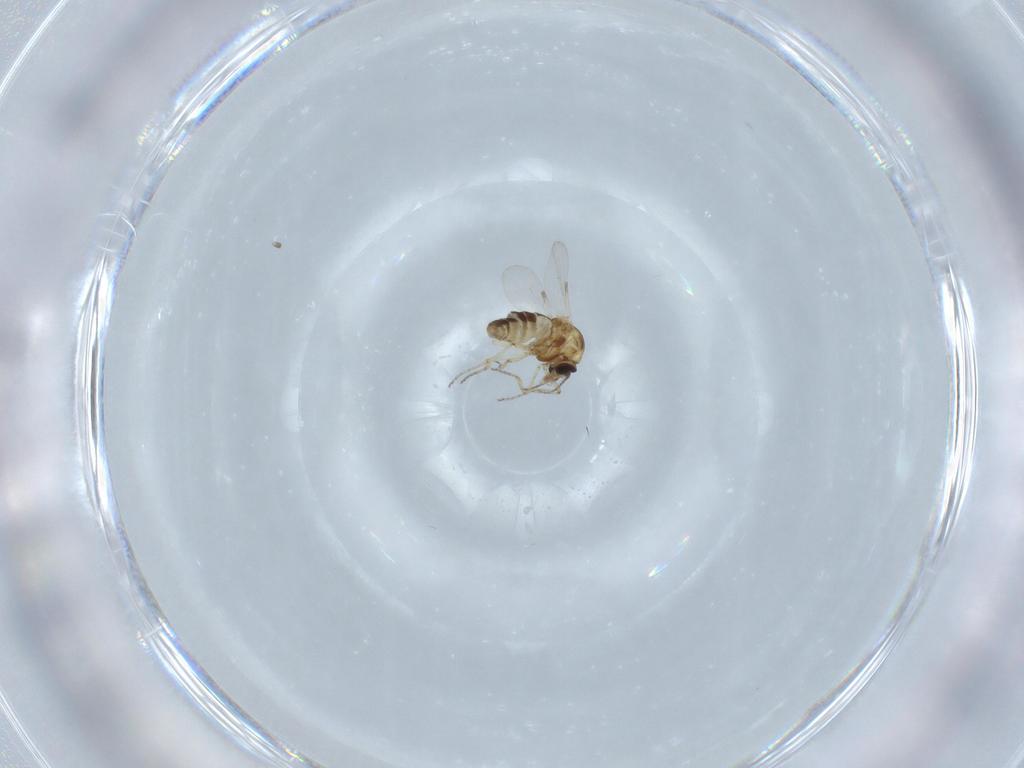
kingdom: Animalia
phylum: Arthropoda
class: Insecta
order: Diptera
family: Ceratopogonidae
